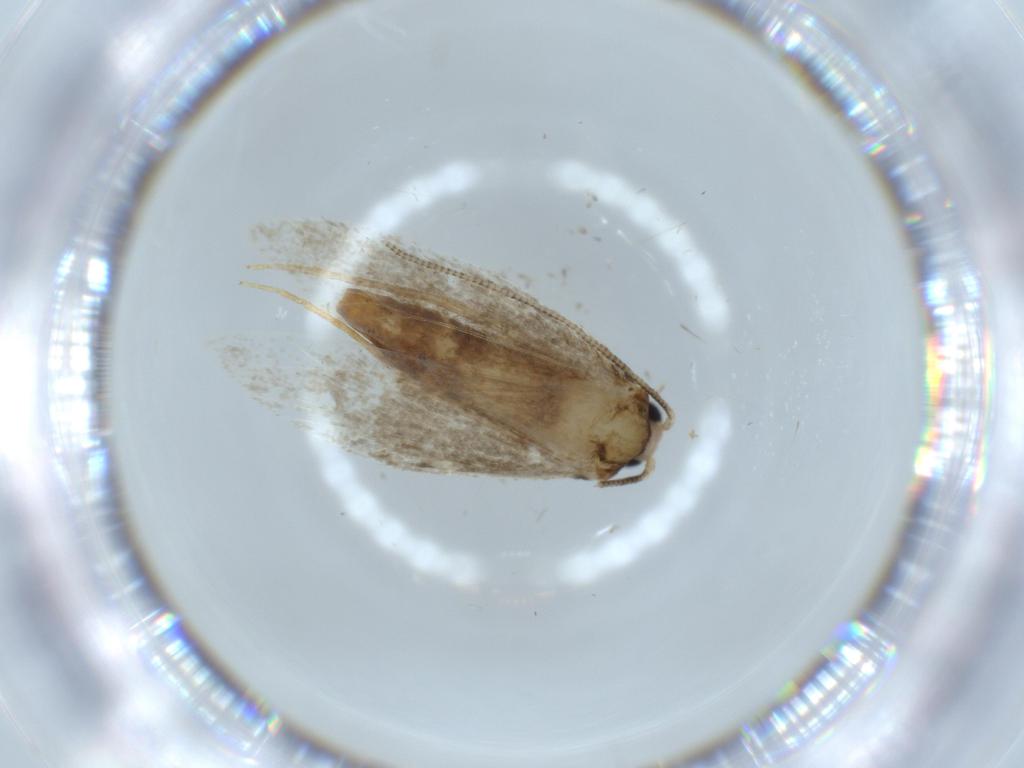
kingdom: Animalia
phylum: Arthropoda
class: Insecta
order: Lepidoptera
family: Tineidae
